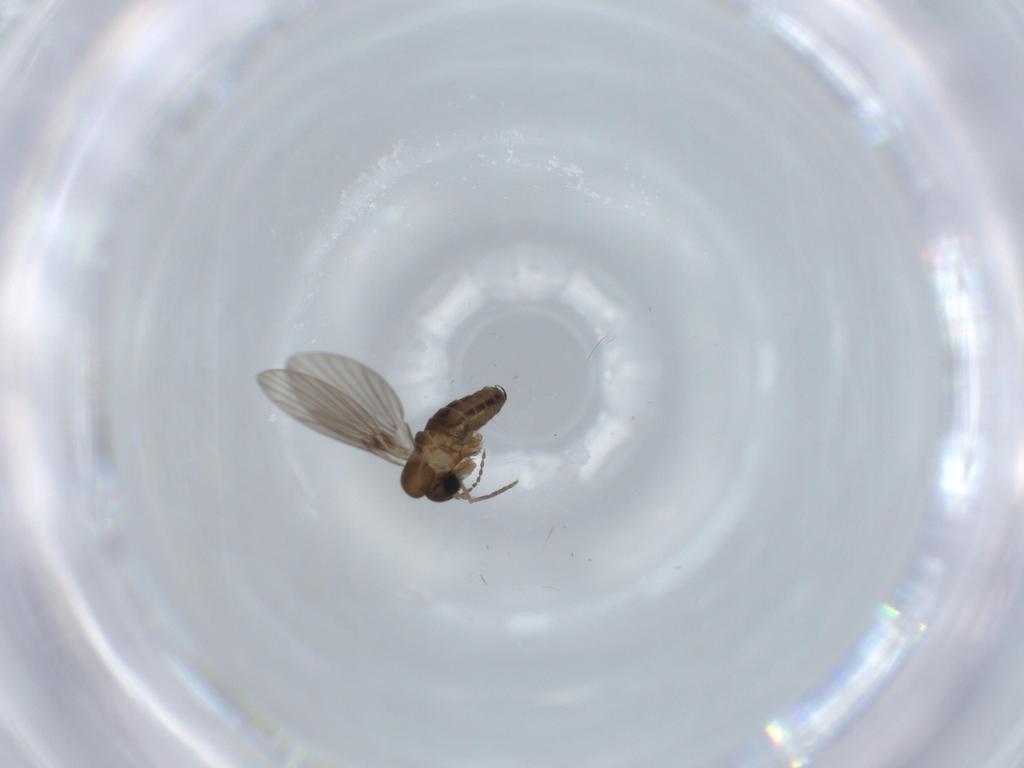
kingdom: Animalia
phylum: Arthropoda
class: Insecta
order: Diptera
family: Psychodidae
